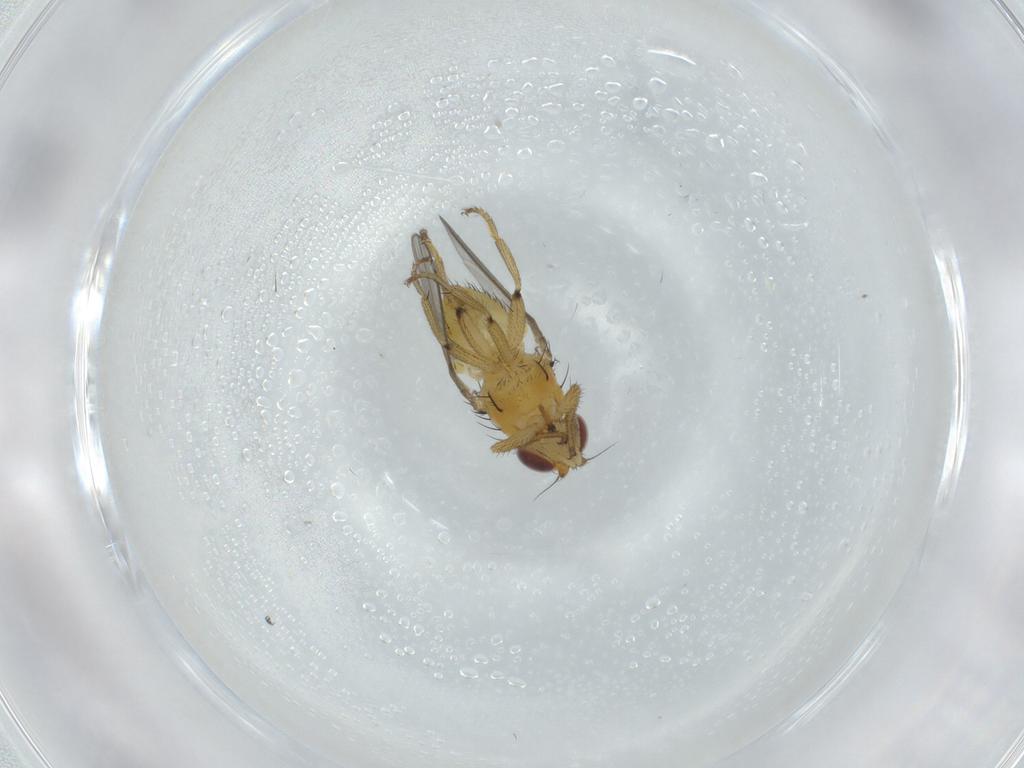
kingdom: Animalia
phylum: Arthropoda
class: Insecta
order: Diptera
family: Milichiidae
